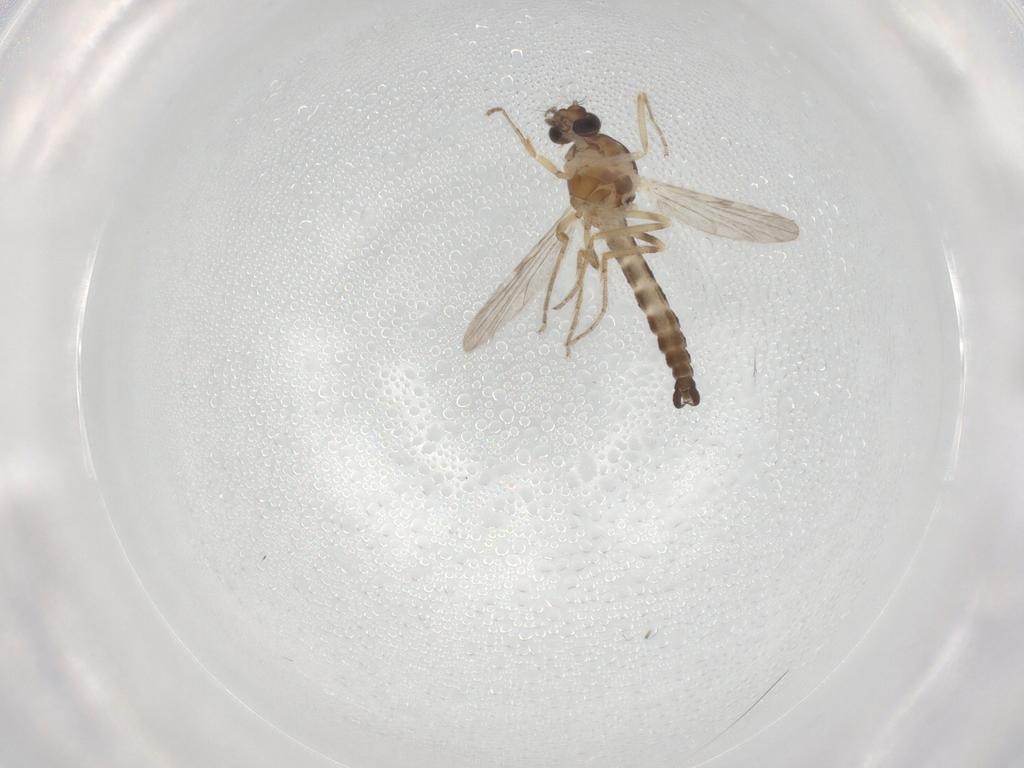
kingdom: Animalia
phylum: Arthropoda
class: Insecta
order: Diptera
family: Ceratopogonidae
